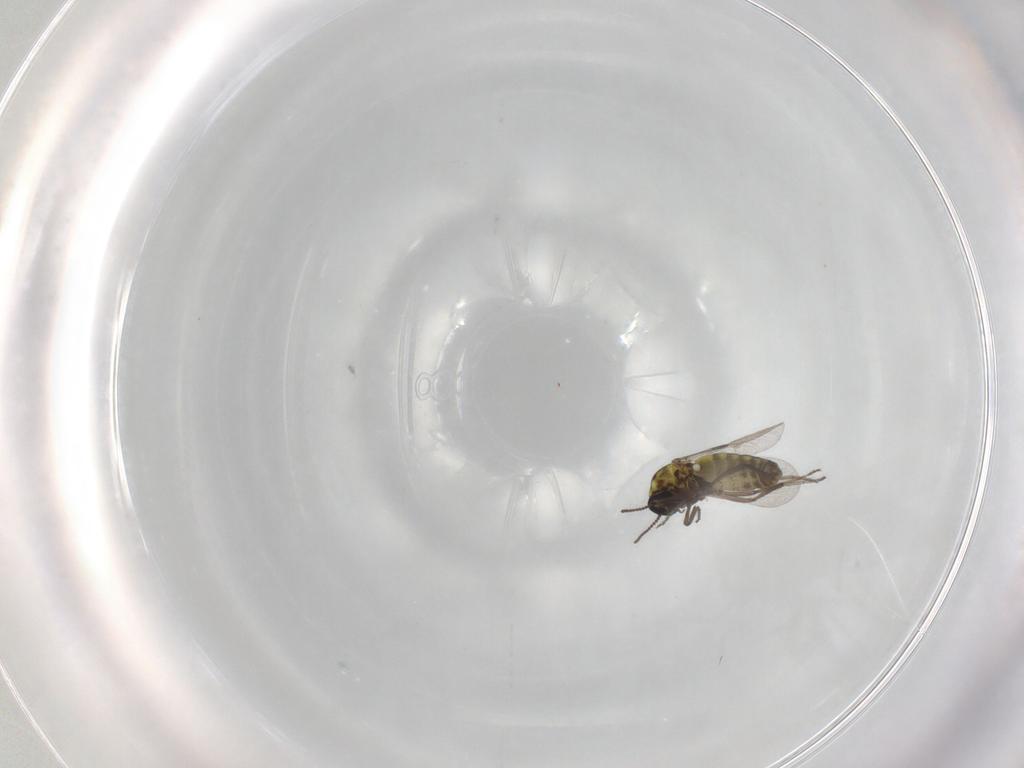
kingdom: Animalia
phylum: Arthropoda
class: Insecta
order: Diptera
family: Ceratopogonidae
